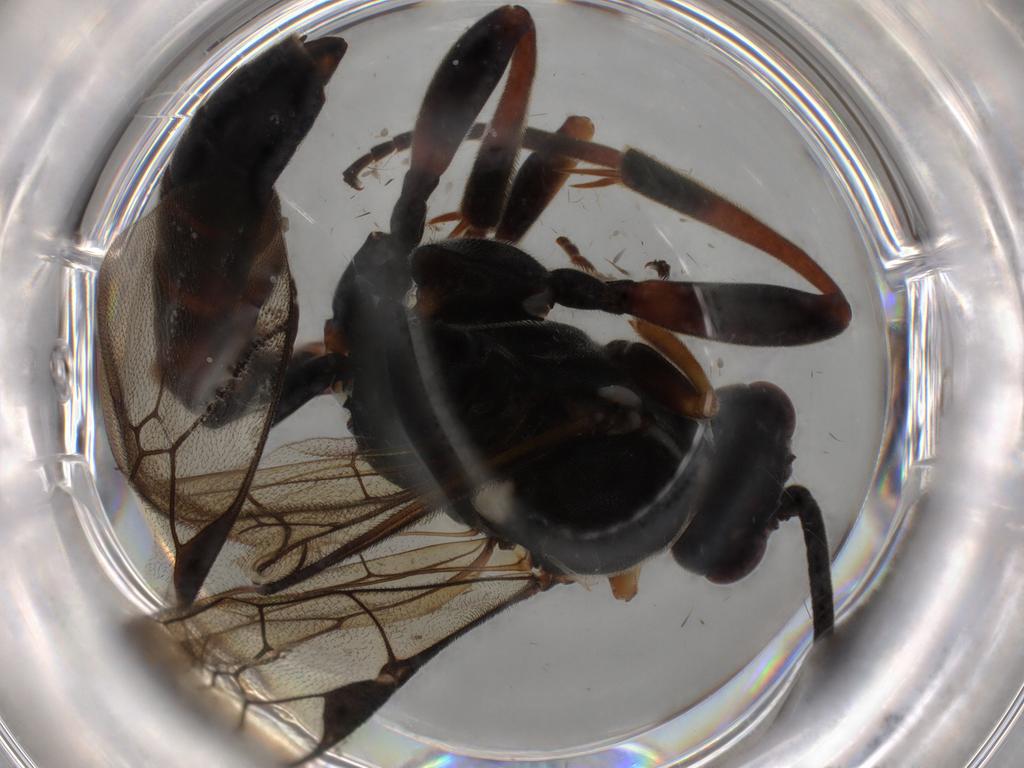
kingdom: Animalia
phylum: Arthropoda
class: Insecta
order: Hymenoptera
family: Ichneumonidae
